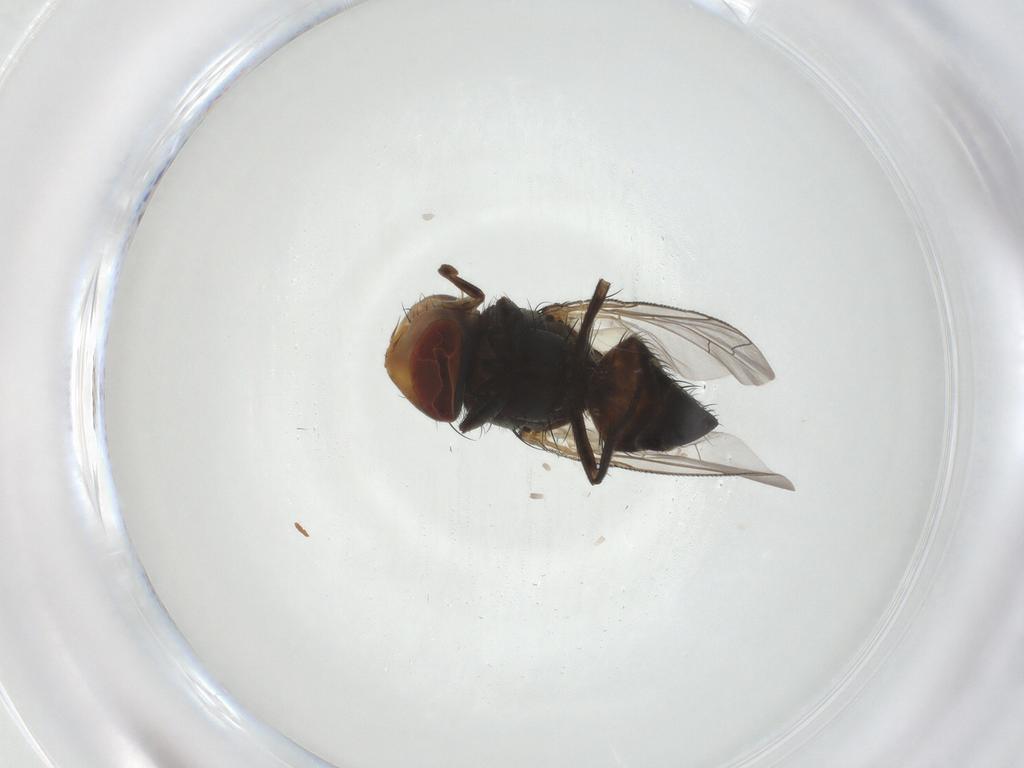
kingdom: Animalia
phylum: Arthropoda
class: Insecta
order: Diptera
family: Sarcophagidae
